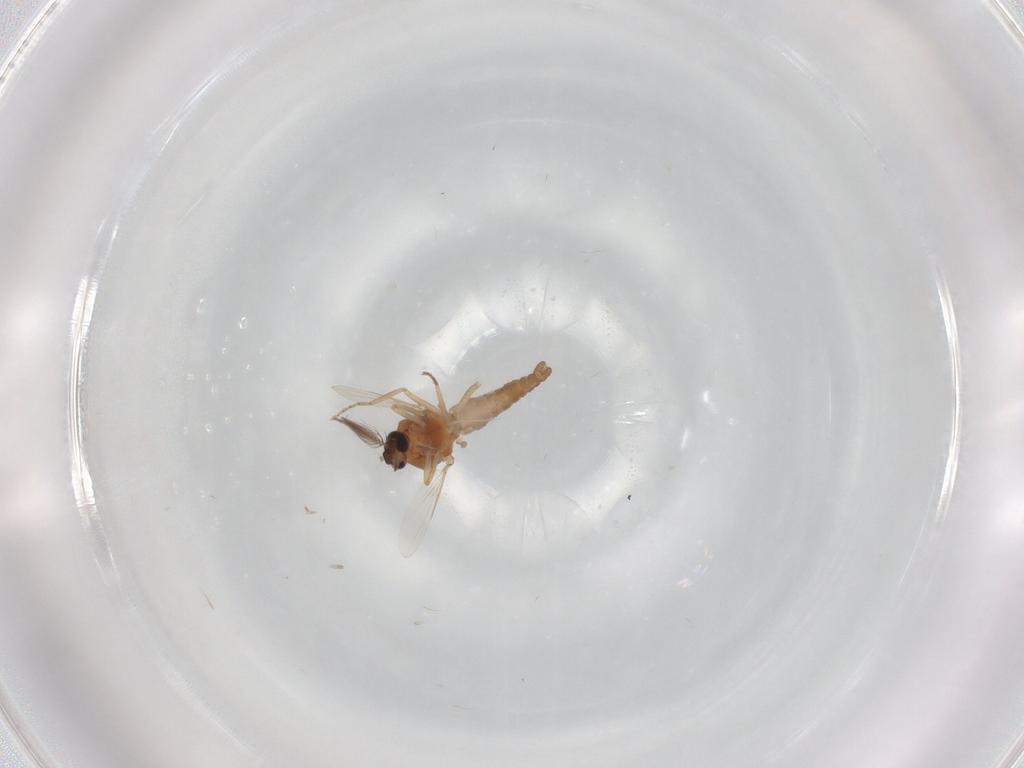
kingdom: Animalia
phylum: Arthropoda
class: Insecta
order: Diptera
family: Ceratopogonidae
